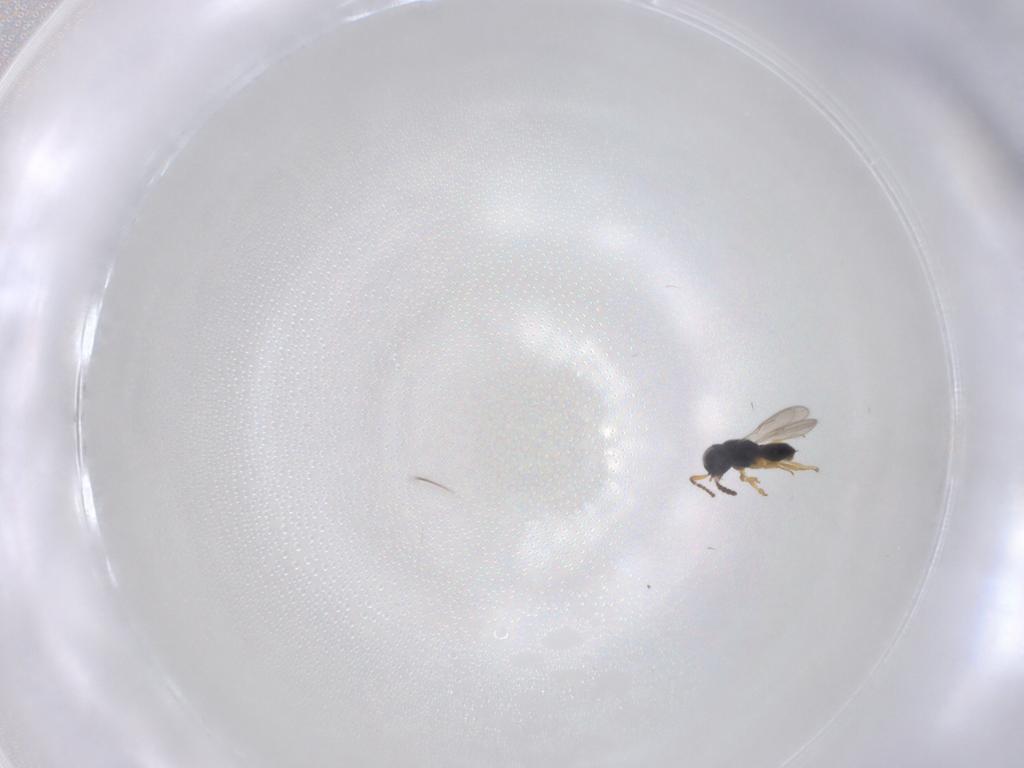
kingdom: Animalia
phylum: Arthropoda
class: Insecta
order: Hymenoptera
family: Scelionidae
